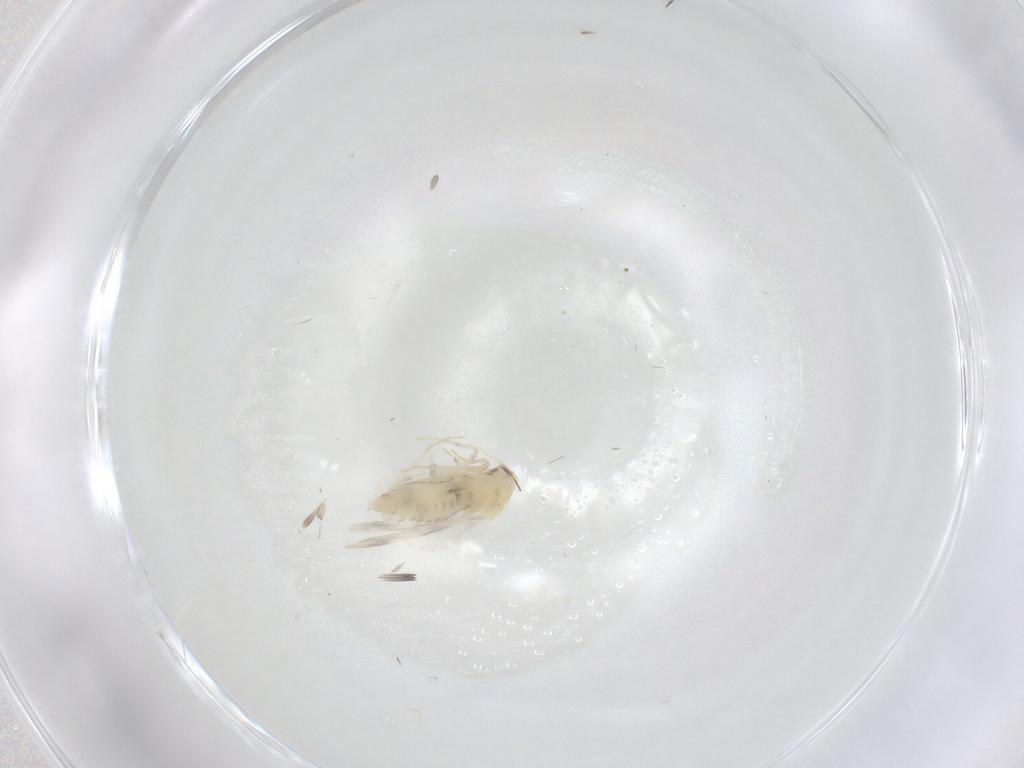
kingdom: Animalia
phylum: Arthropoda
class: Insecta
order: Hemiptera
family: Aleyrodidae
